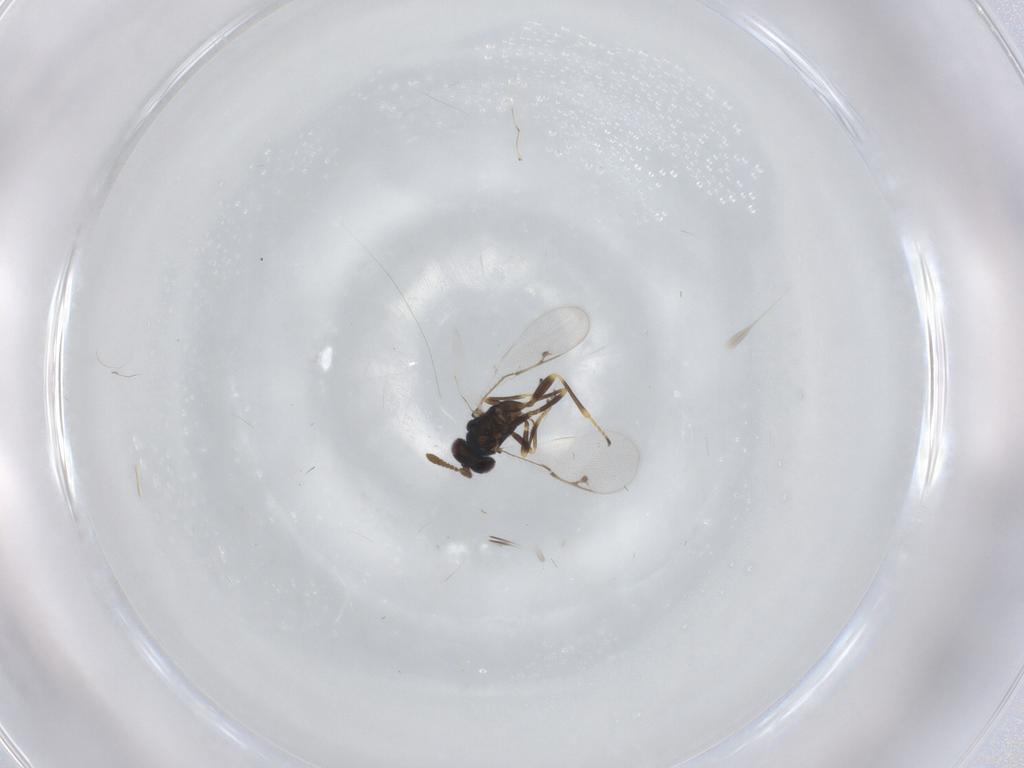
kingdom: Animalia
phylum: Arthropoda
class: Insecta
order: Hymenoptera
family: Pirenidae
